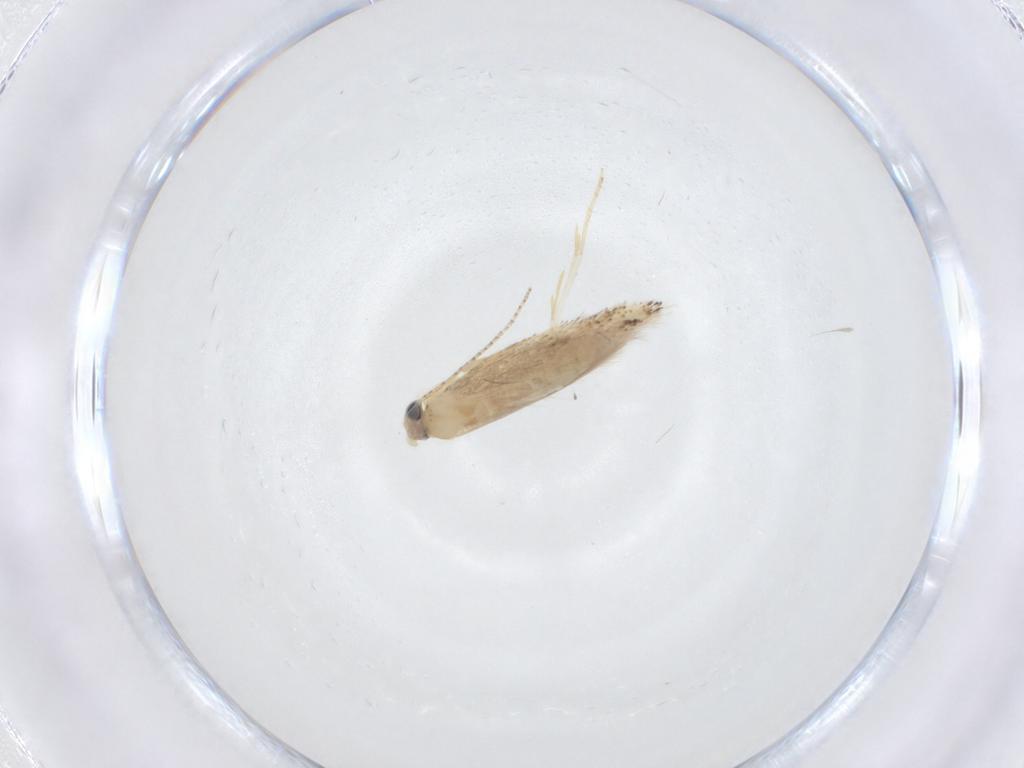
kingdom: Animalia
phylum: Arthropoda
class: Insecta
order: Lepidoptera
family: Bucculatricidae
